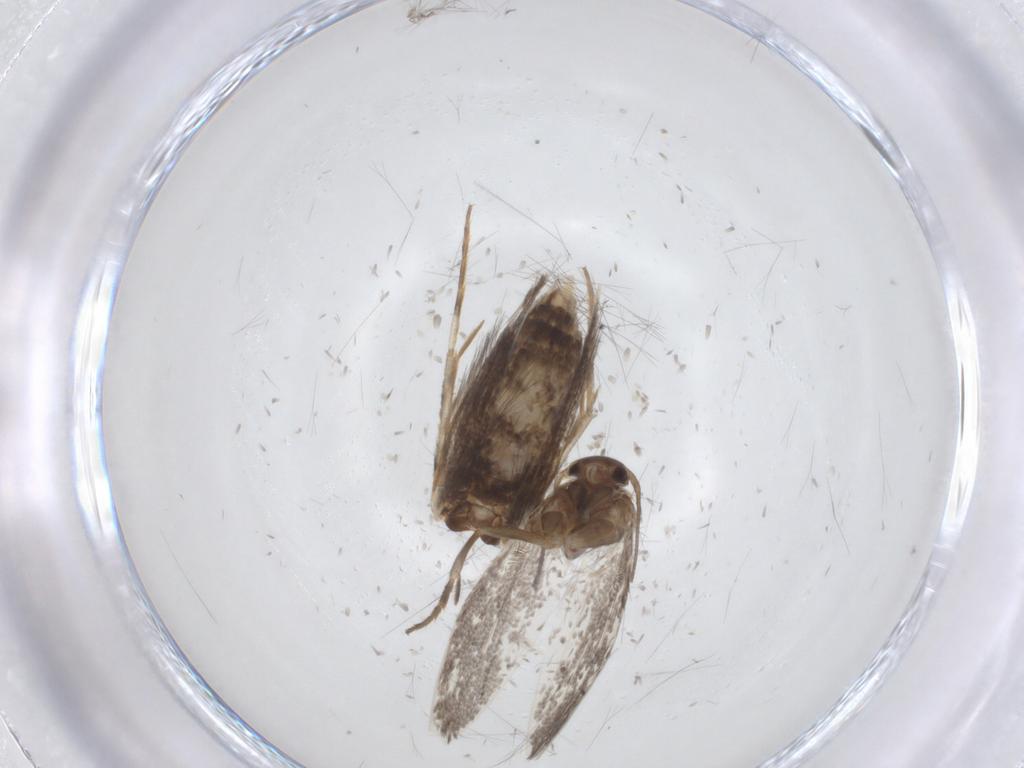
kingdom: Animalia
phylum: Arthropoda
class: Insecta
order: Lepidoptera
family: Elachistidae
